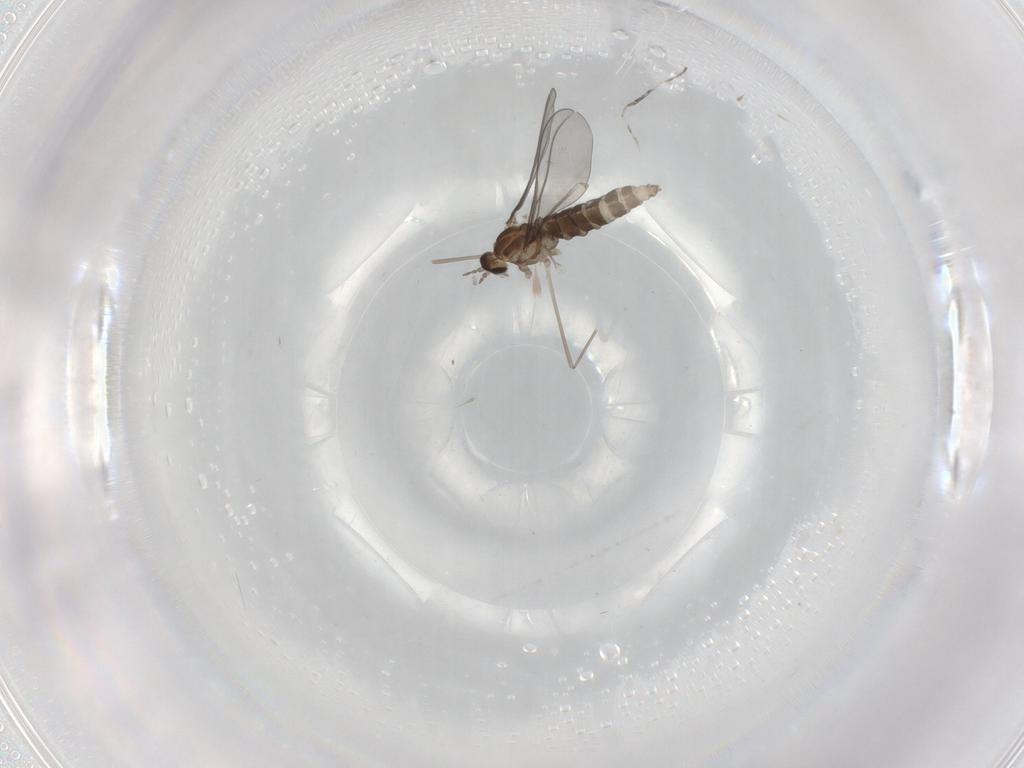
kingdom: Animalia
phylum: Arthropoda
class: Insecta
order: Diptera
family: Cecidomyiidae
